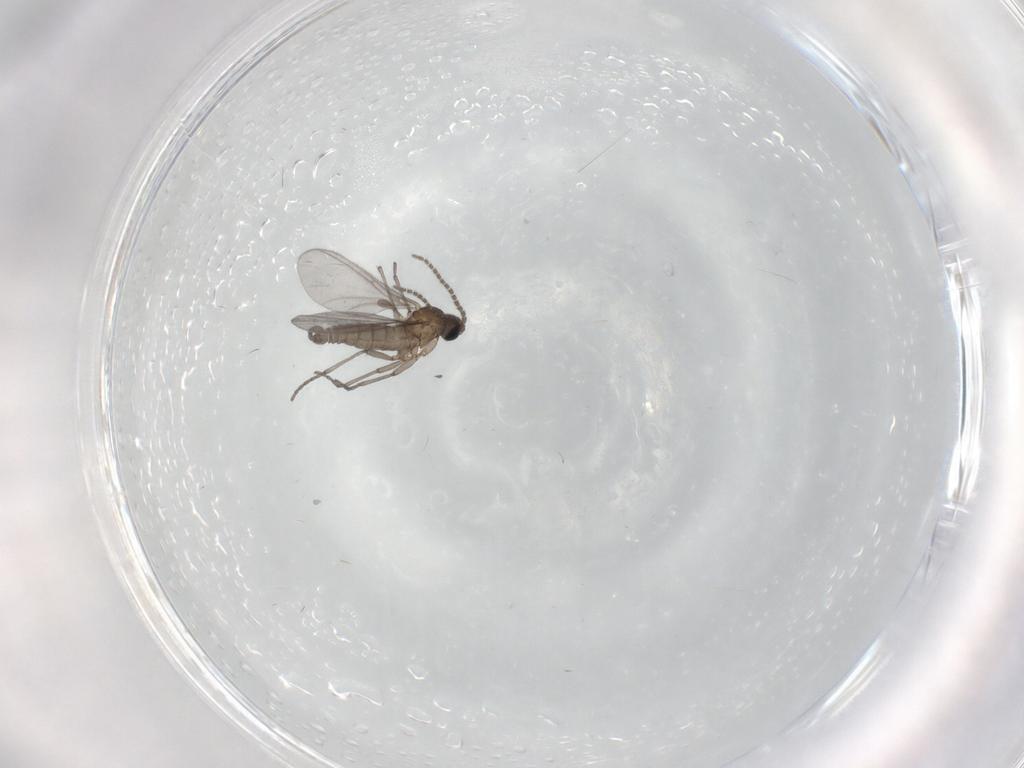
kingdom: Animalia
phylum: Arthropoda
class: Insecta
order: Diptera
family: Sciaridae
